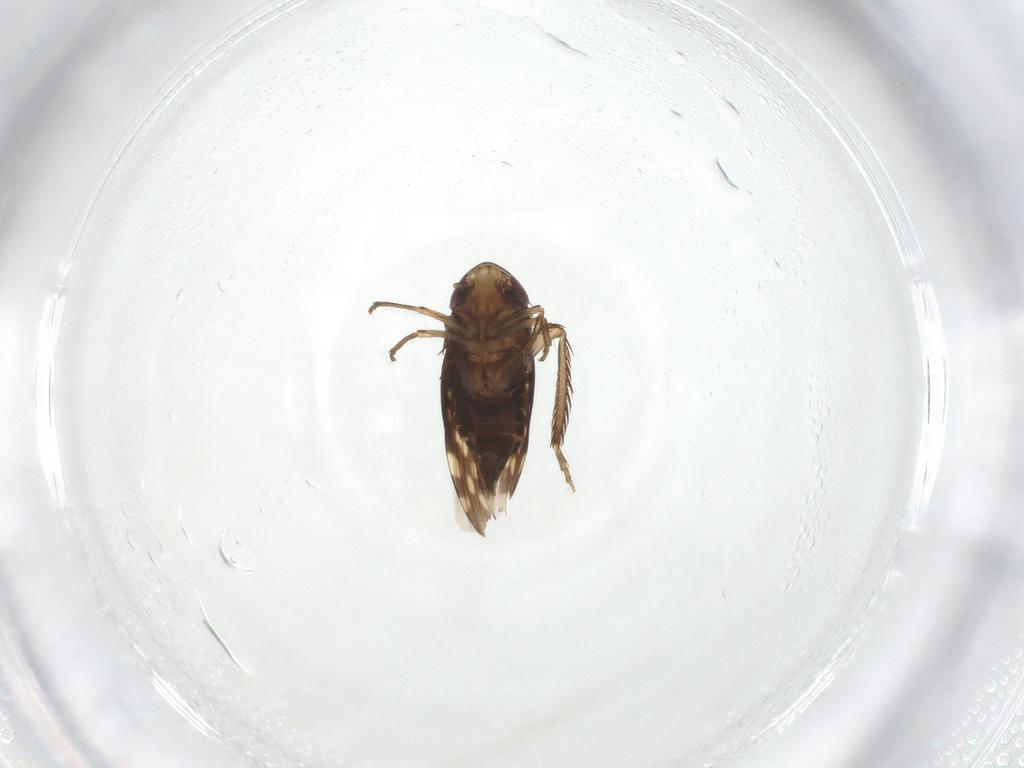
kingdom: Animalia
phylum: Arthropoda
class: Insecta
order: Hemiptera
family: Cicadellidae
